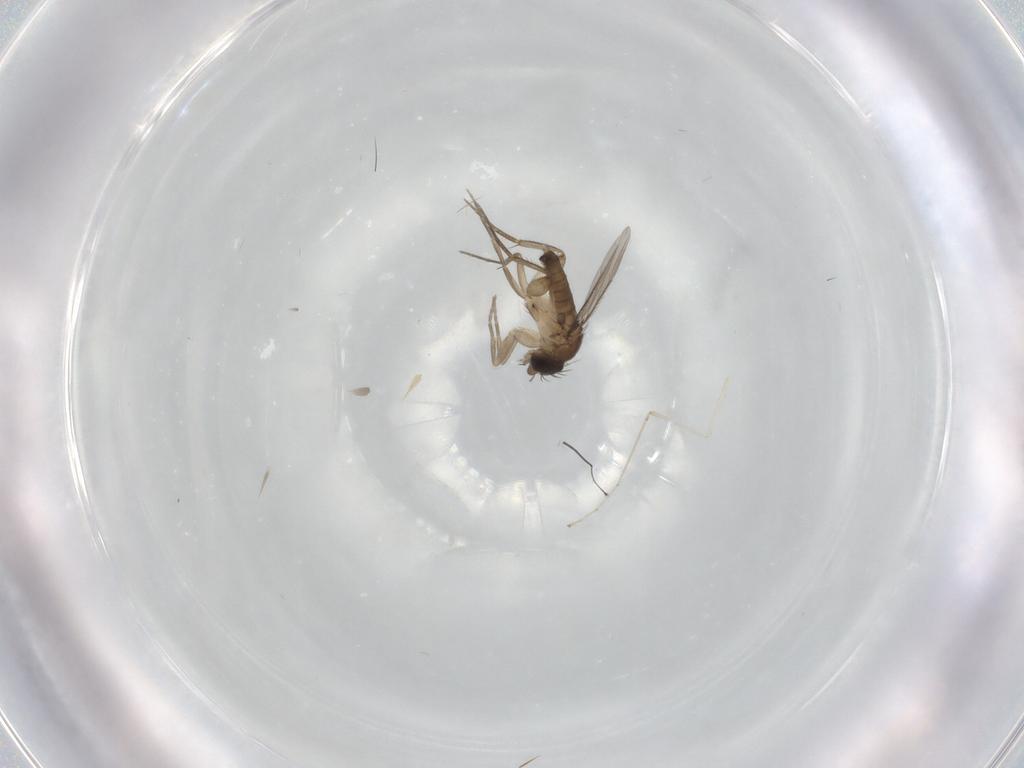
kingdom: Animalia
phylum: Arthropoda
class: Insecta
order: Diptera
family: Phoridae
